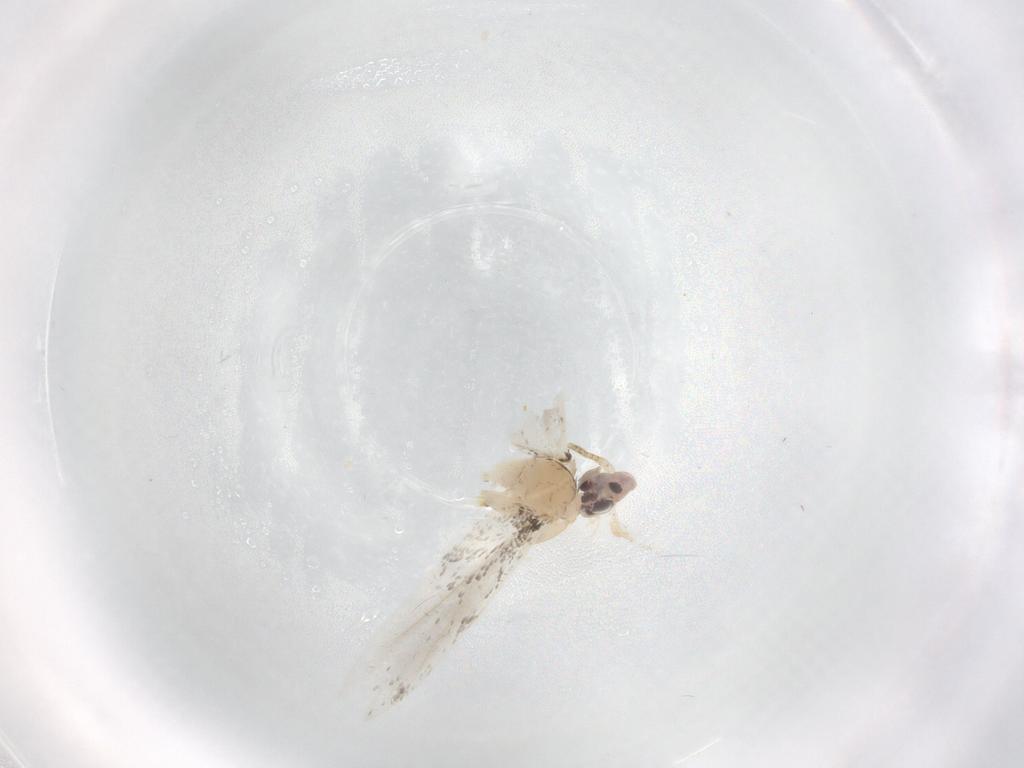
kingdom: Animalia
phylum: Arthropoda
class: Insecta
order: Lepidoptera
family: Tineidae
